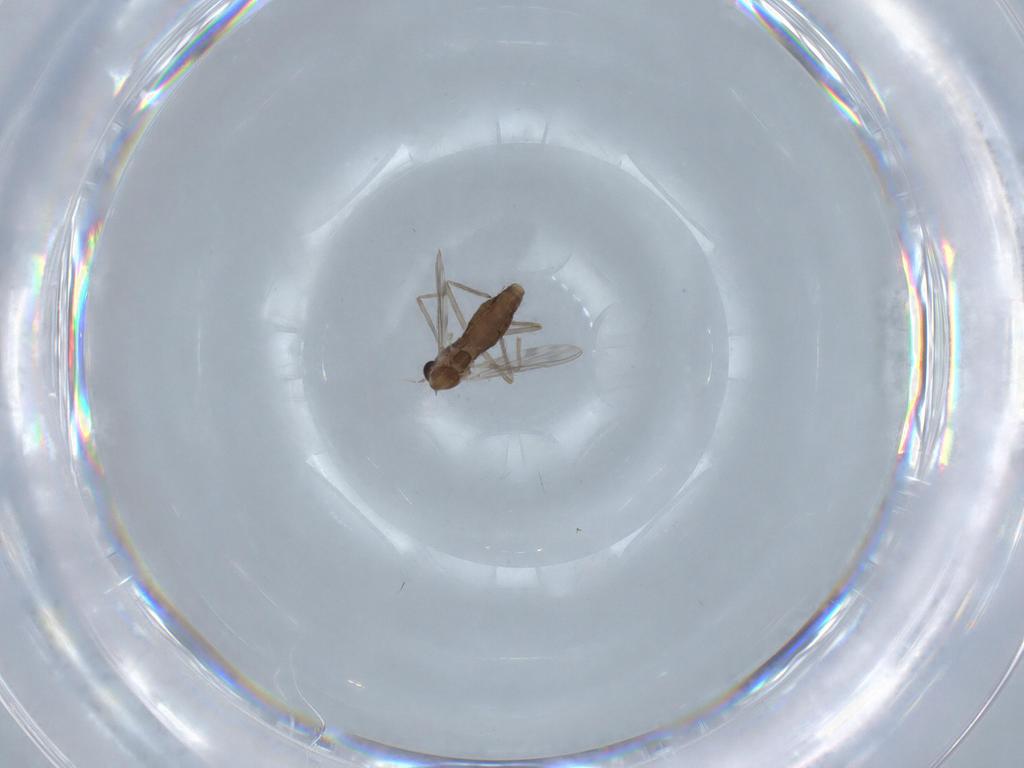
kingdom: Animalia
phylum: Arthropoda
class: Insecta
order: Diptera
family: Chironomidae
